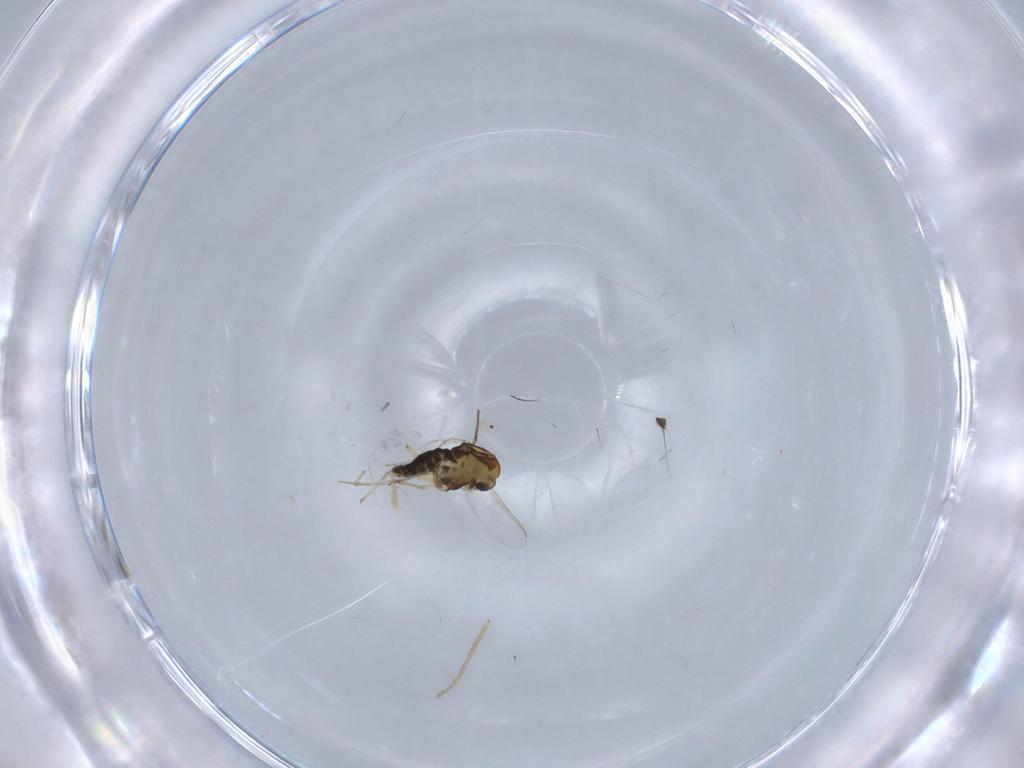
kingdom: Animalia
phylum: Arthropoda
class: Insecta
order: Diptera
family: Chironomidae
